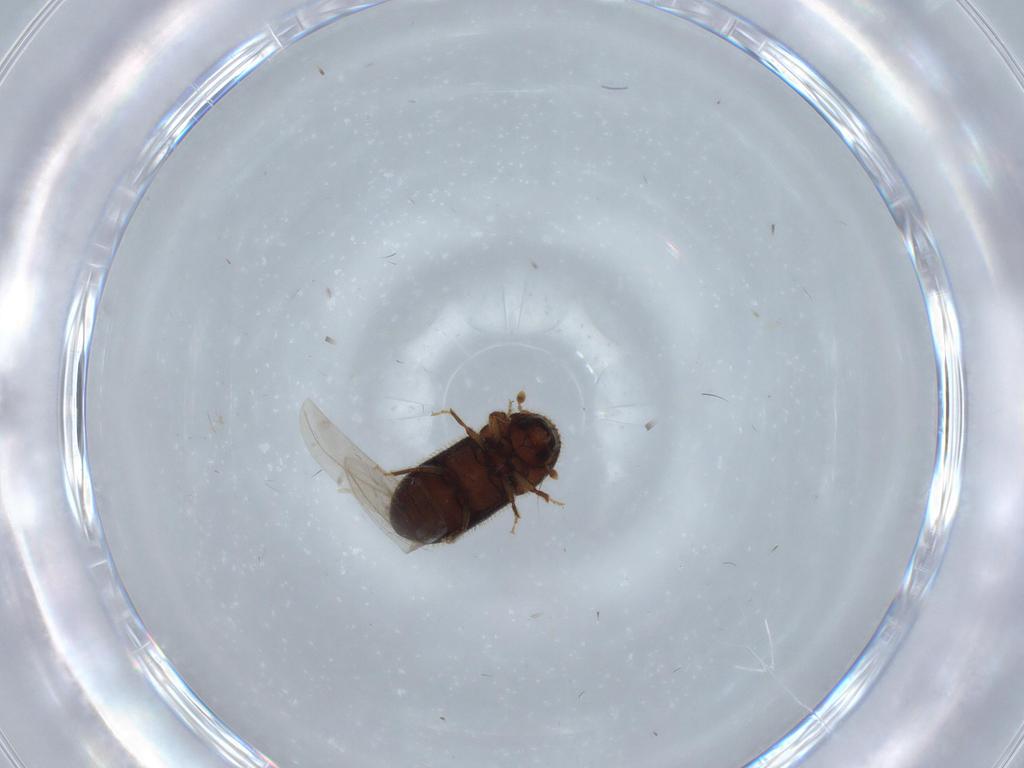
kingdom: Animalia
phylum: Arthropoda
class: Insecta
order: Coleoptera
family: Curculionidae
